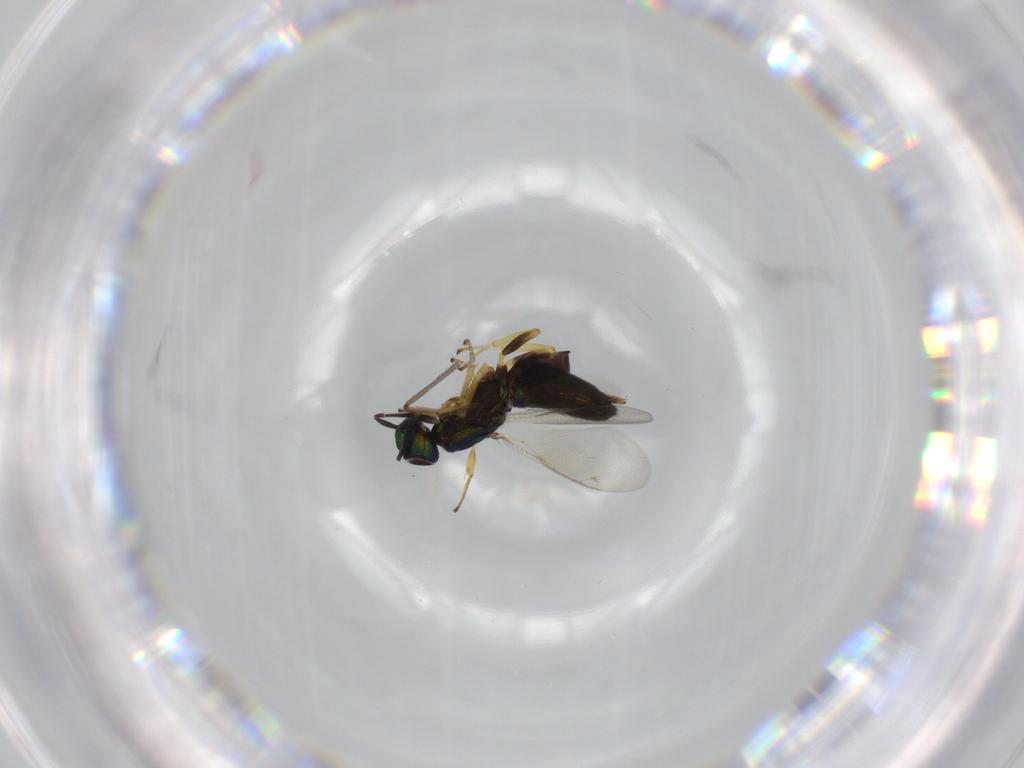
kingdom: Animalia
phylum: Arthropoda
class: Insecta
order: Hymenoptera
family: Eupelmidae
